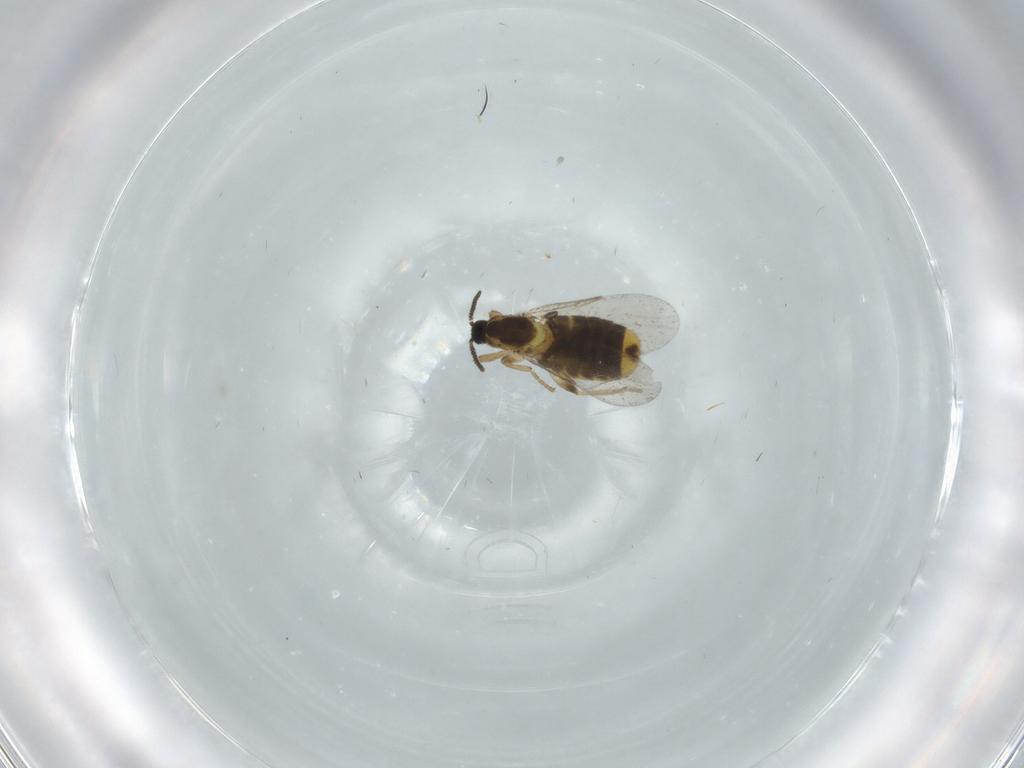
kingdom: Animalia
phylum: Arthropoda
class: Insecta
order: Diptera
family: Scatopsidae
